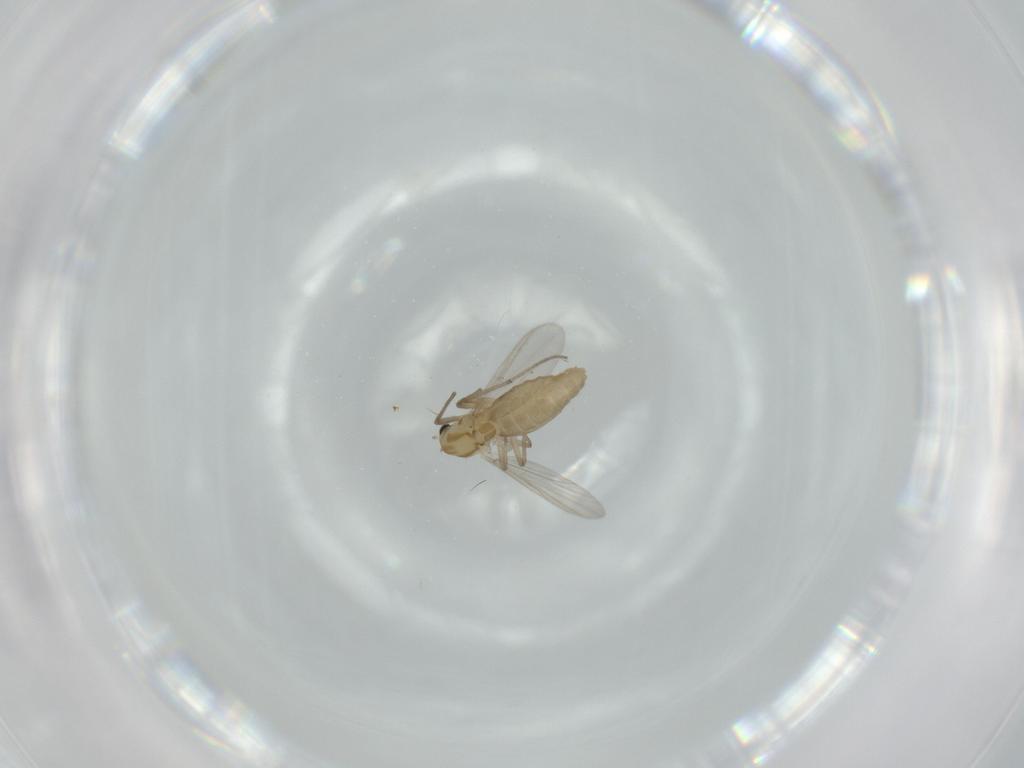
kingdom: Animalia
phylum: Arthropoda
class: Insecta
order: Diptera
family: Chironomidae
